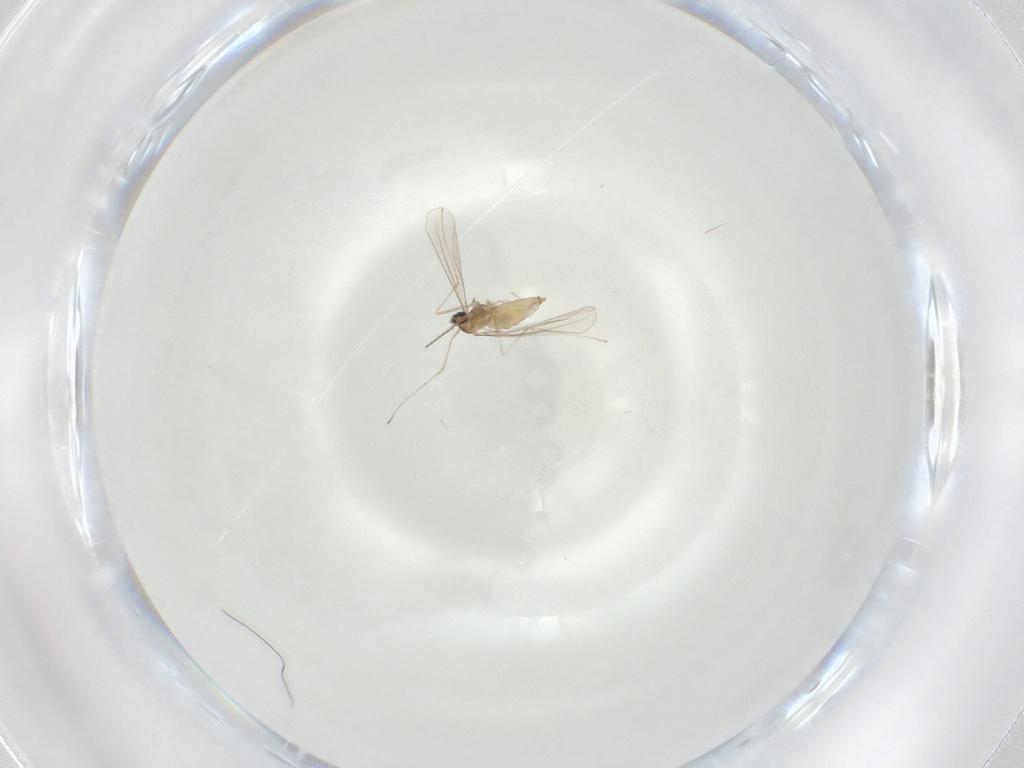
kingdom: Animalia
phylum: Arthropoda
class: Insecta
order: Diptera
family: Cecidomyiidae
